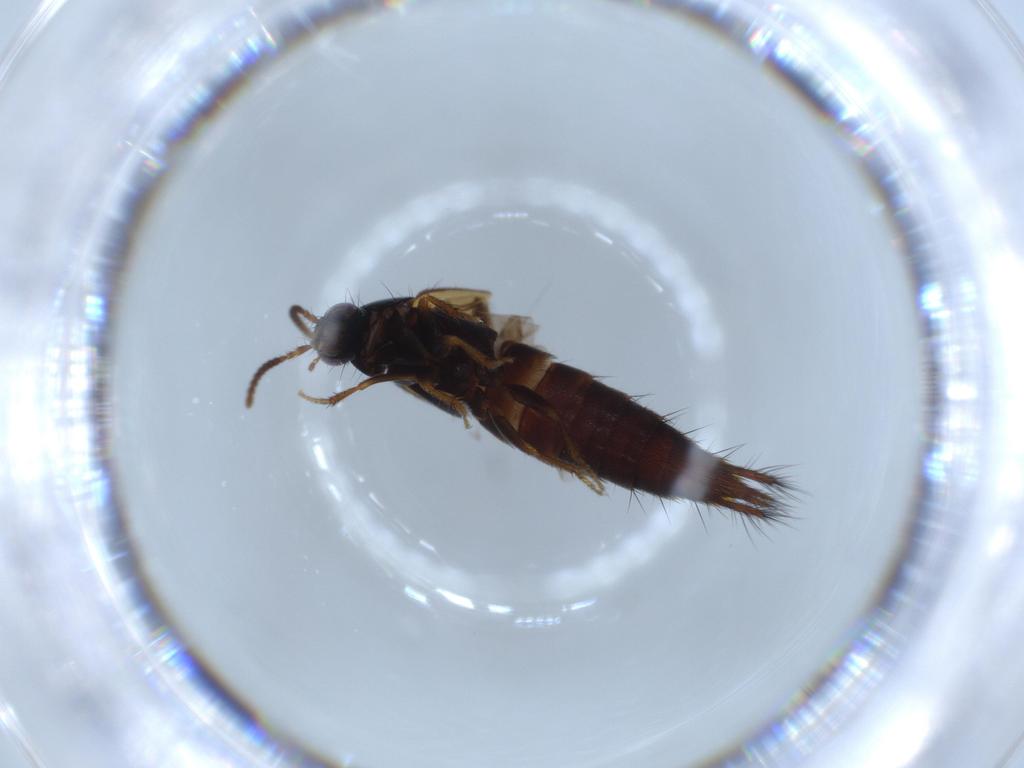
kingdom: Animalia
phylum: Arthropoda
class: Insecta
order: Coleoptera
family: Staphylinidae
